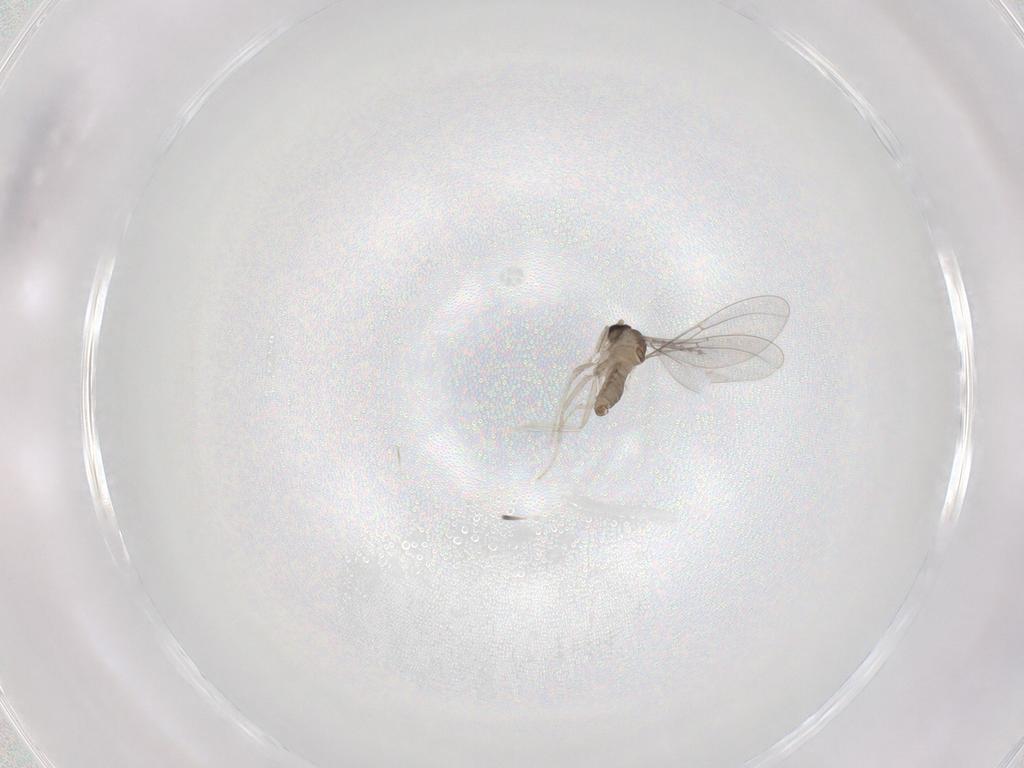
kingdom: Animalia
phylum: Arthropoda
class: Insecta
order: Diptera
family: Cecidomyiidae
